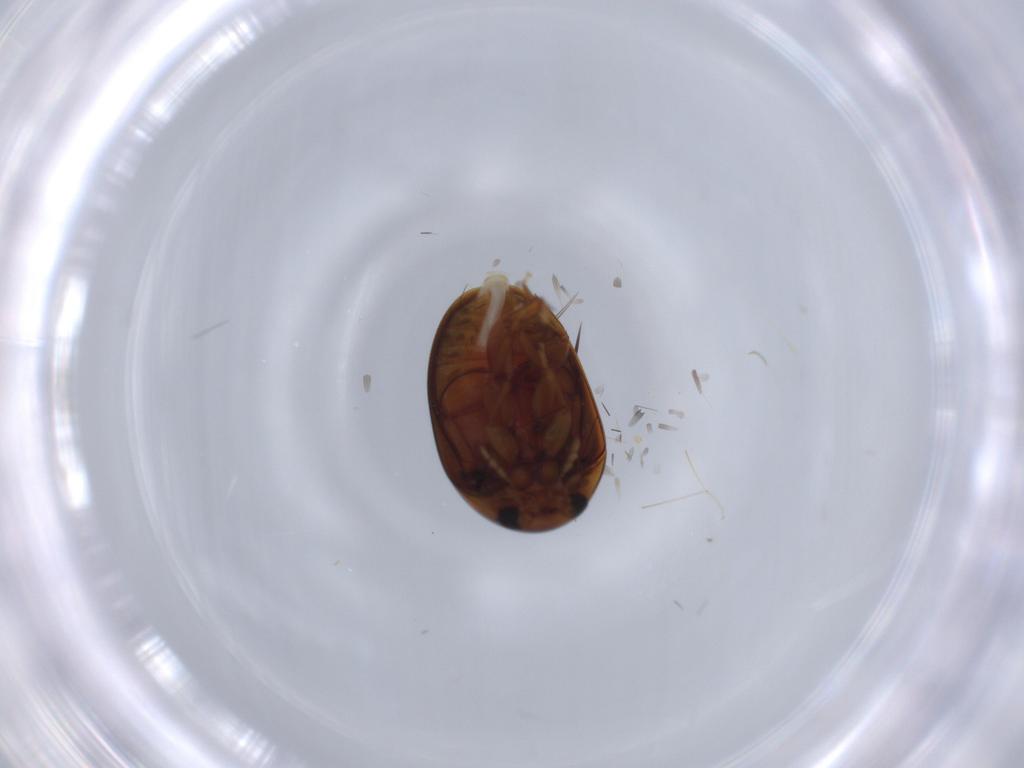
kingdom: Animalia
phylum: Arthropoda
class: Insecta
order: Coleoptera
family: Phalacridae
